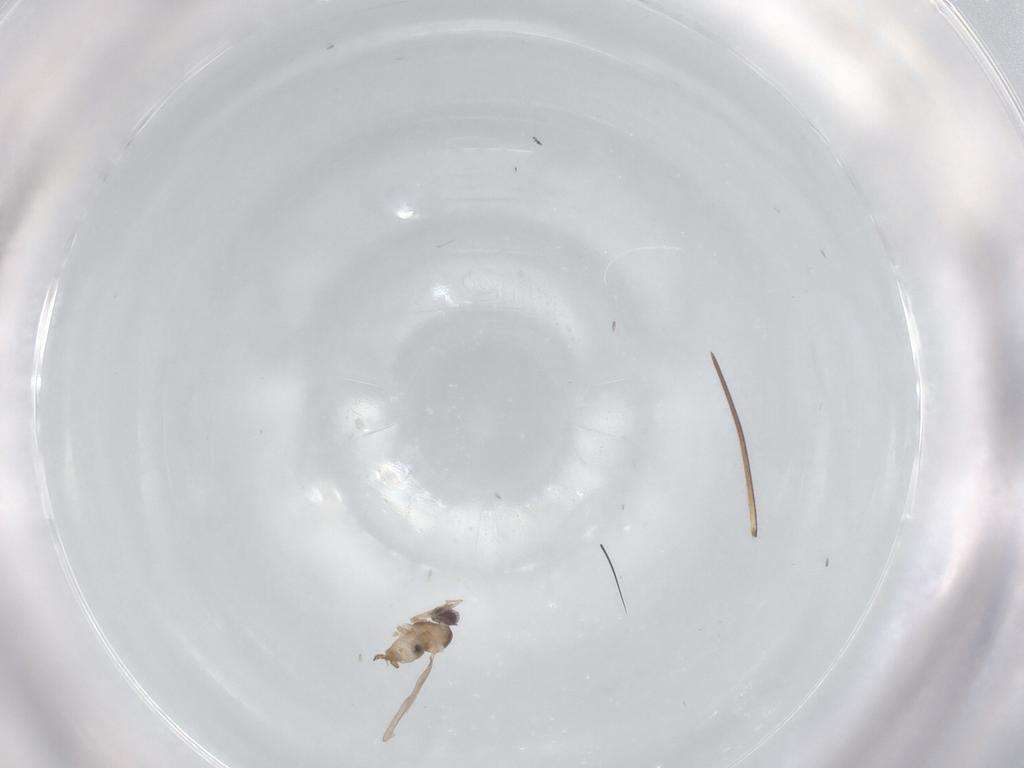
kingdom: Animalia
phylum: Arthropoda
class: Insecta
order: Diptera
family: Cecidomyiidae
